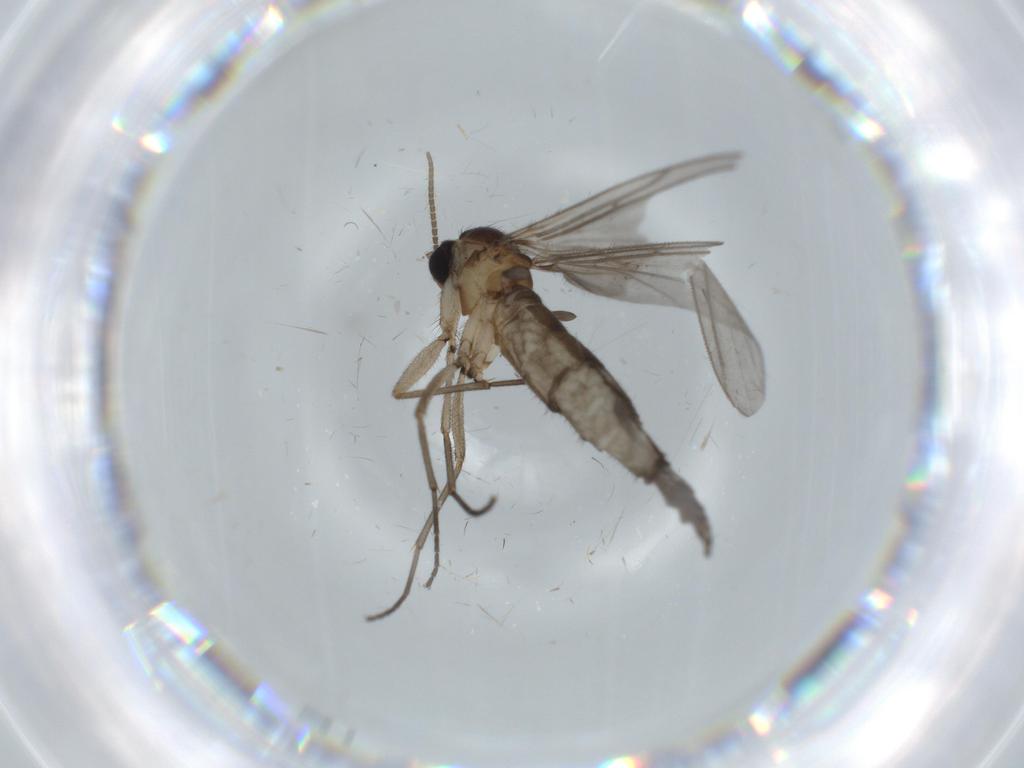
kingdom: Animalia
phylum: Arthropoda
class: Insecta
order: Diptera
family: Sciaridae
